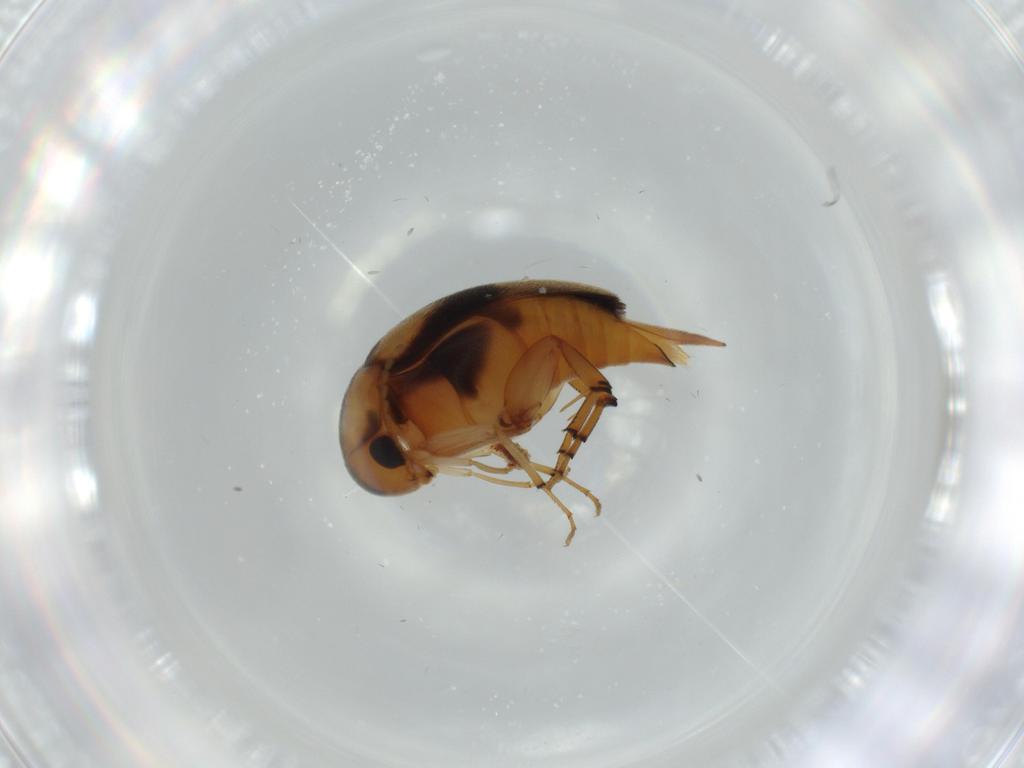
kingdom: Animalia
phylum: Arthropoda
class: Insecta
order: Coleoptera
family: Mordellidae
